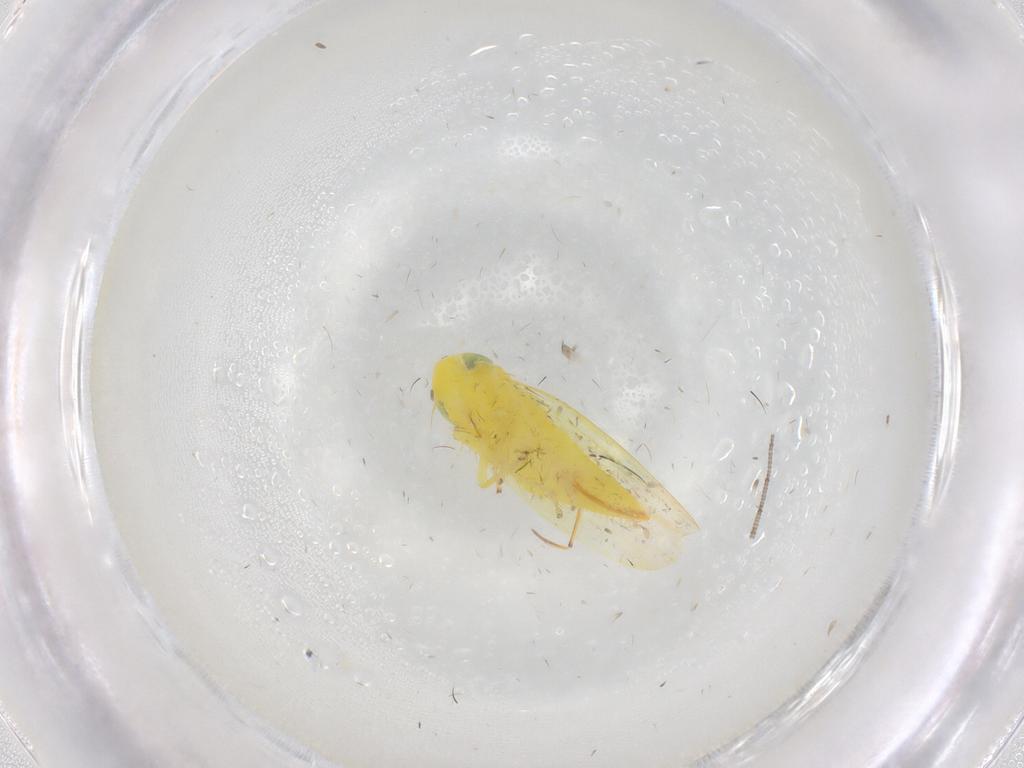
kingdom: Animalia
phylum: Arthropoda
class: Insecta
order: Hemiptera
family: Cicadellidae
